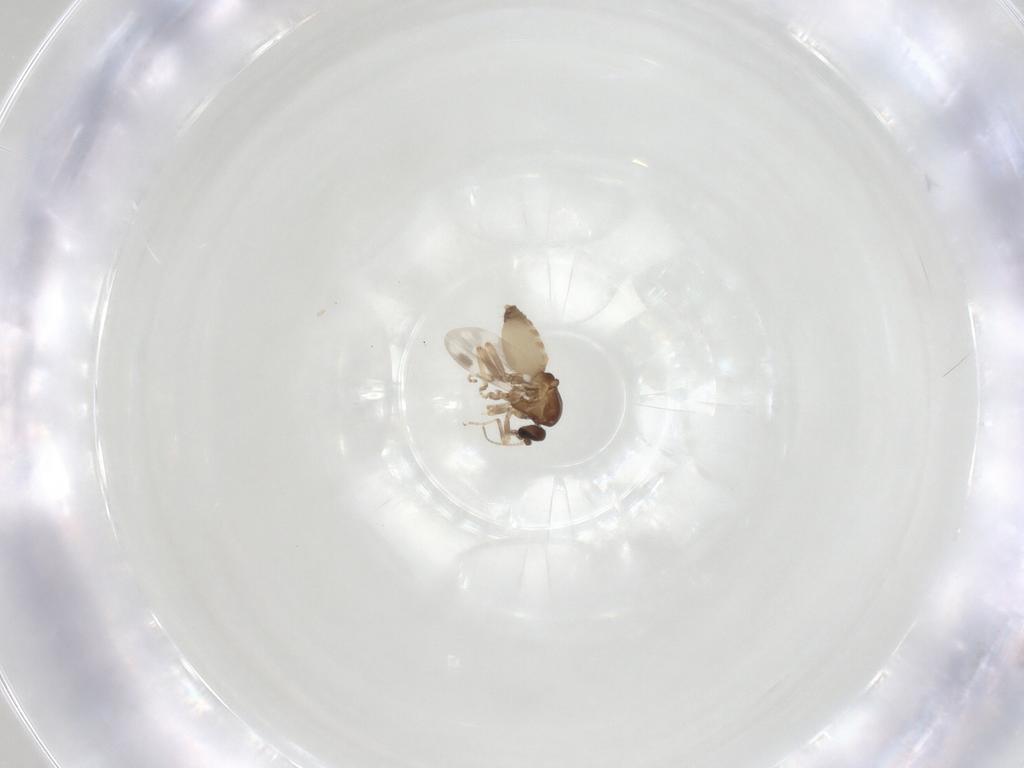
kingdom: Animalia
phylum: Arthropoda
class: Insecta
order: Diptera
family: Ceratopogonidae
